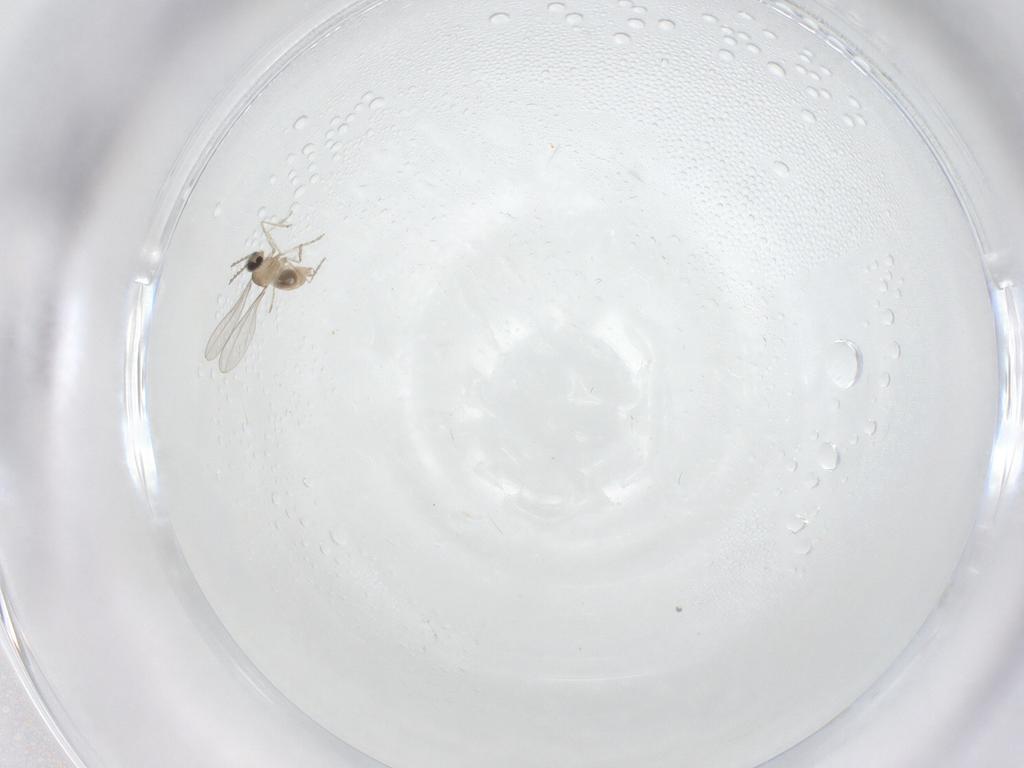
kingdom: Animalia
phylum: Arthropoda
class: Insecta
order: Diptera
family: Cecidomyiidae
